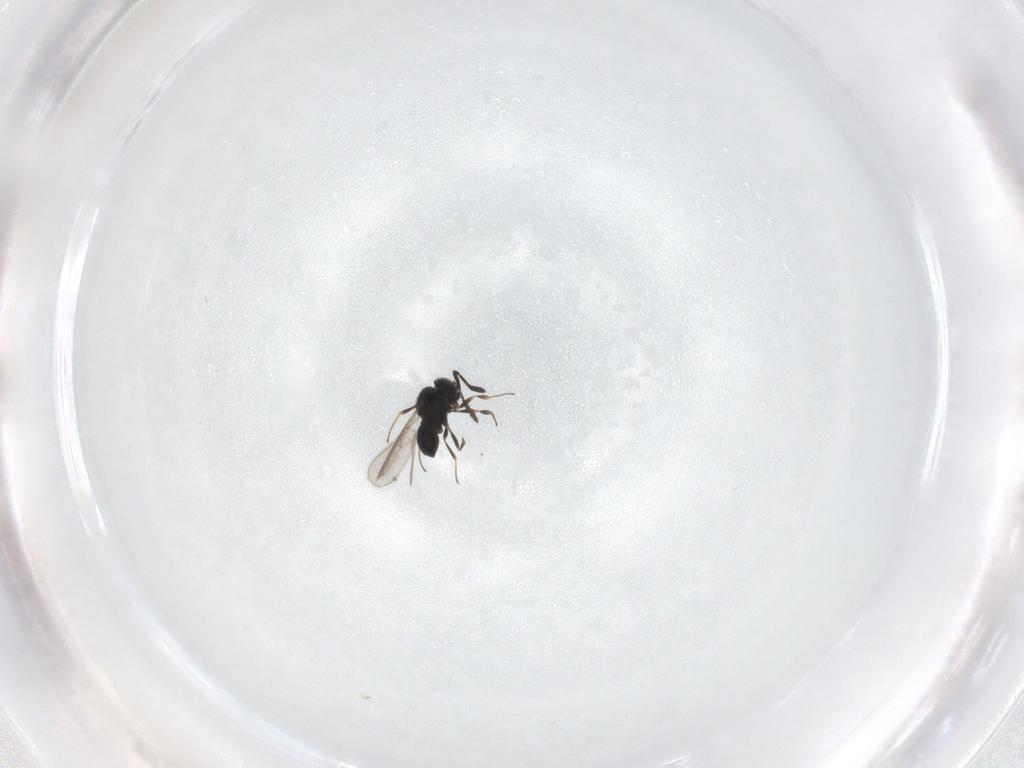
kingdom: Animalia
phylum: Arthropoda
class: Insecta
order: Hymenoptera
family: Scelionidae
